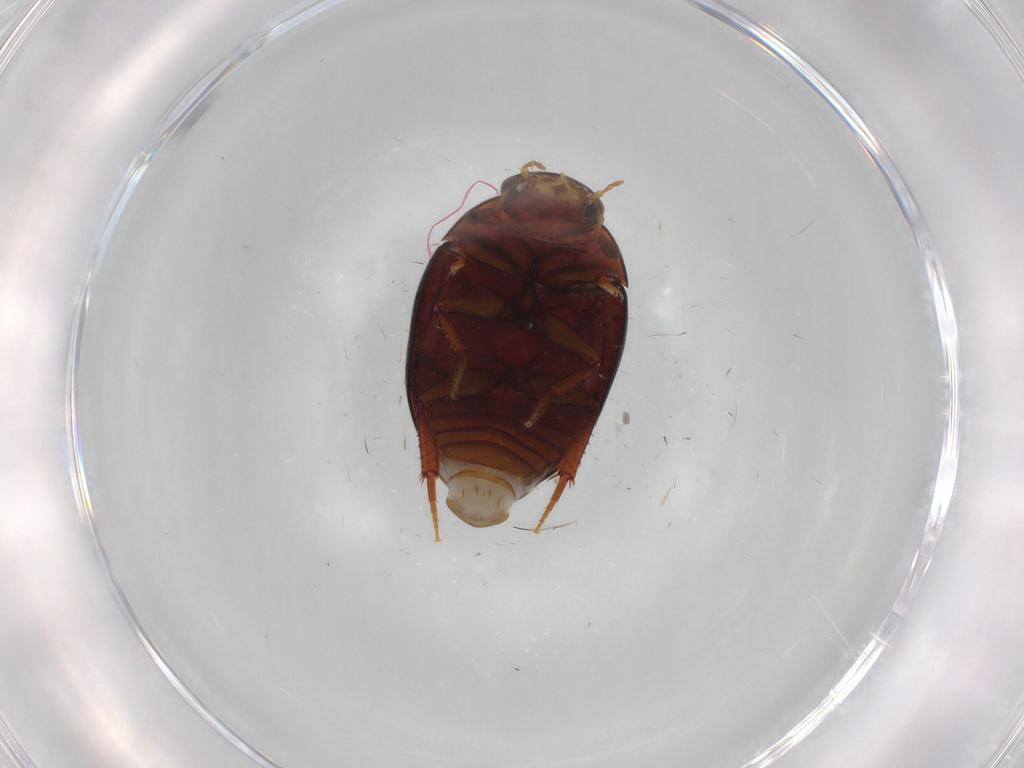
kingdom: Animalia
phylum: Arthropoda
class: Insecta
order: Coleoptera
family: Hydrophilidae
